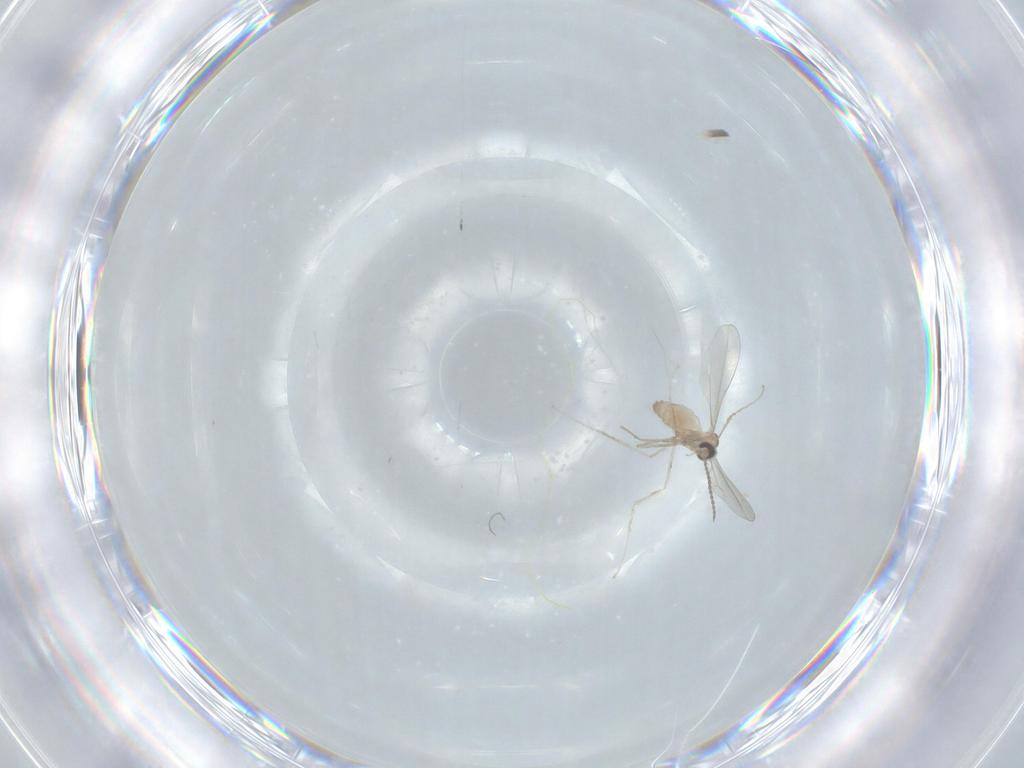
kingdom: Animalia
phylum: Arthropoda
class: Insecta
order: Diptera
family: Cecidomyiidae
